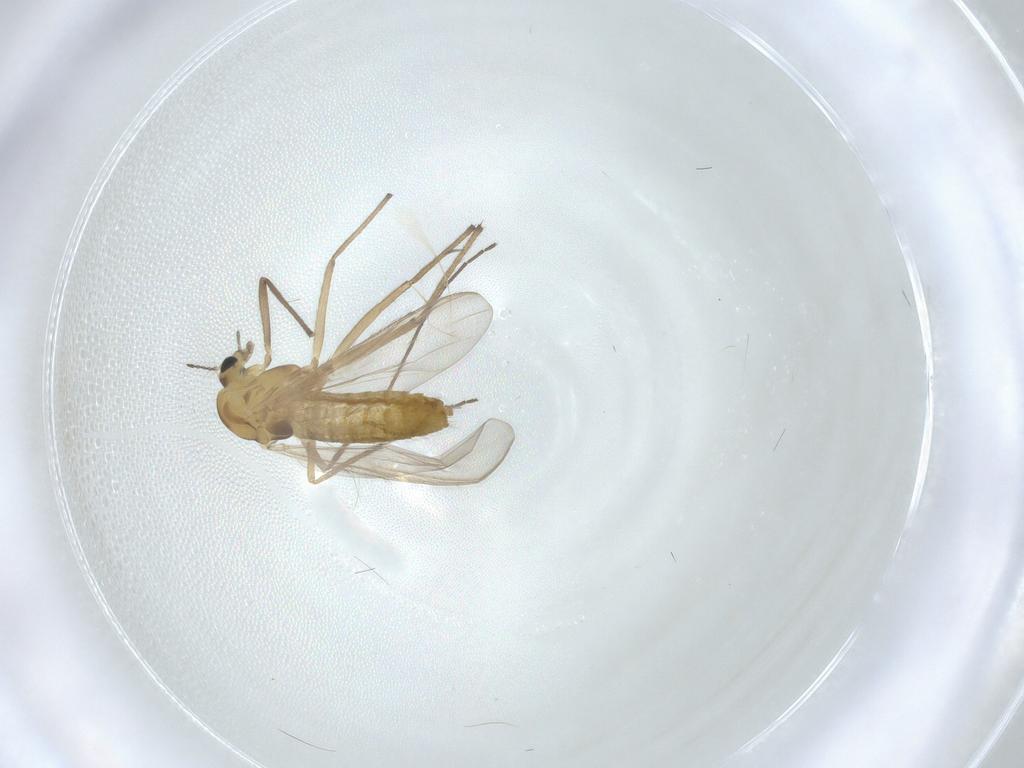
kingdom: Animalia
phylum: Arthropoda
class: Insecta
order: Diptera
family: Chironomidae
